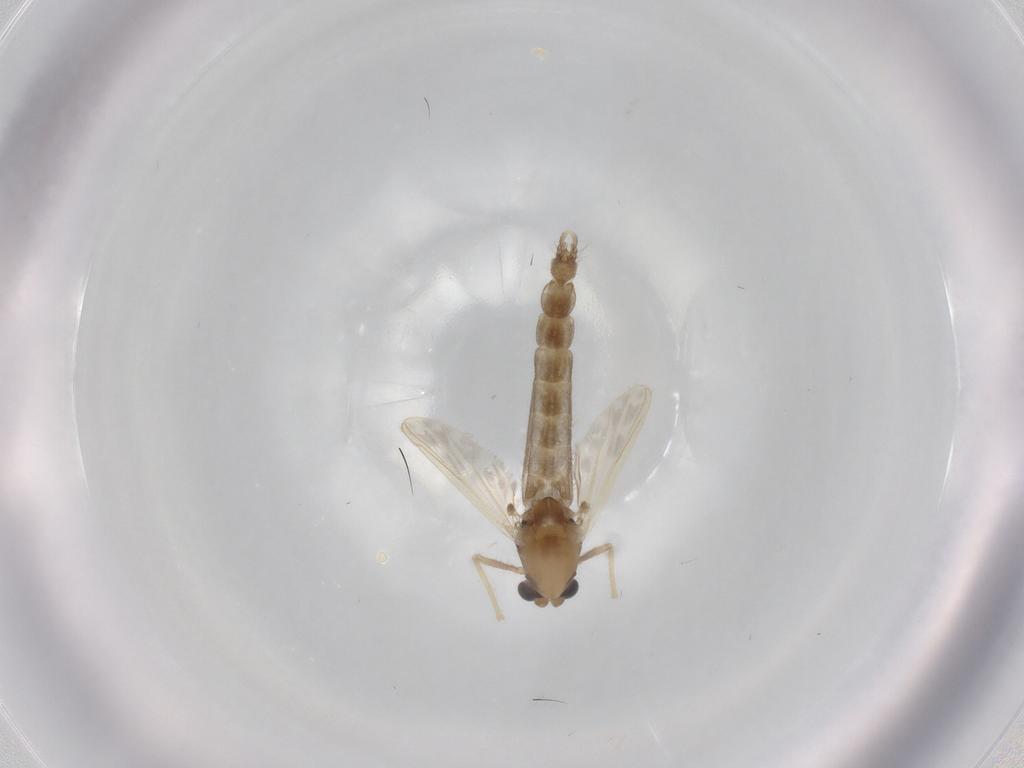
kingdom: Animalia
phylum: Arthropoda
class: Insecta
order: Diptera
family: Chironomidae
